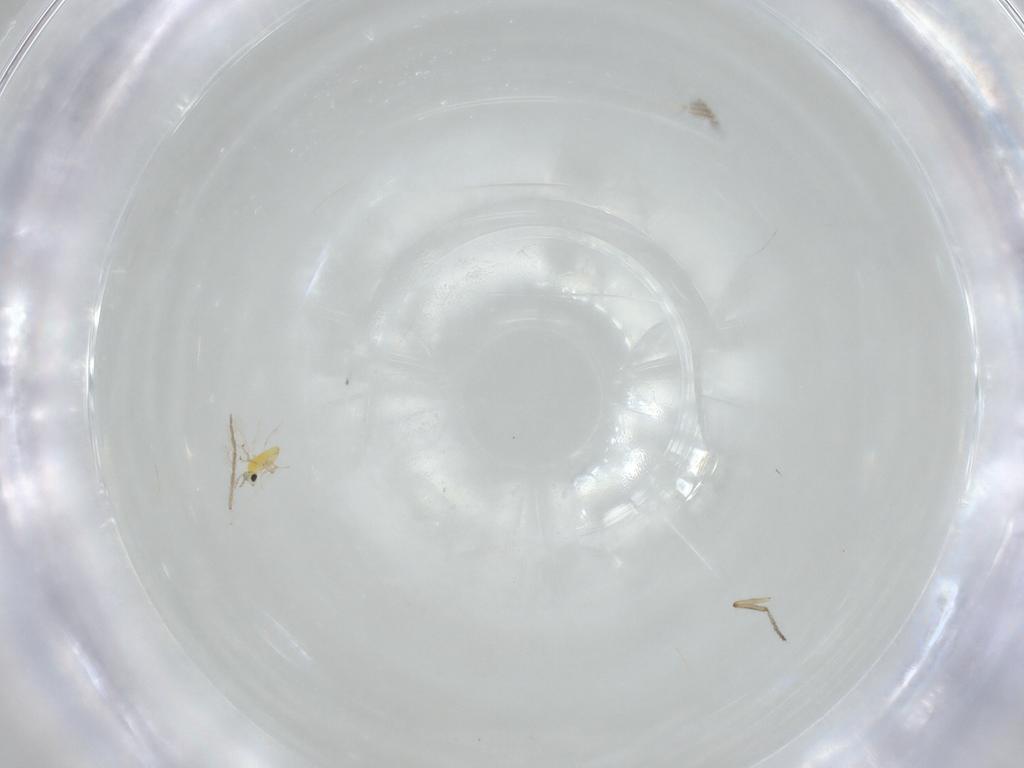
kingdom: Animalia
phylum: Arthropoda
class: Insecta
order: Hymenoptera
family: Trichogrammatidae
